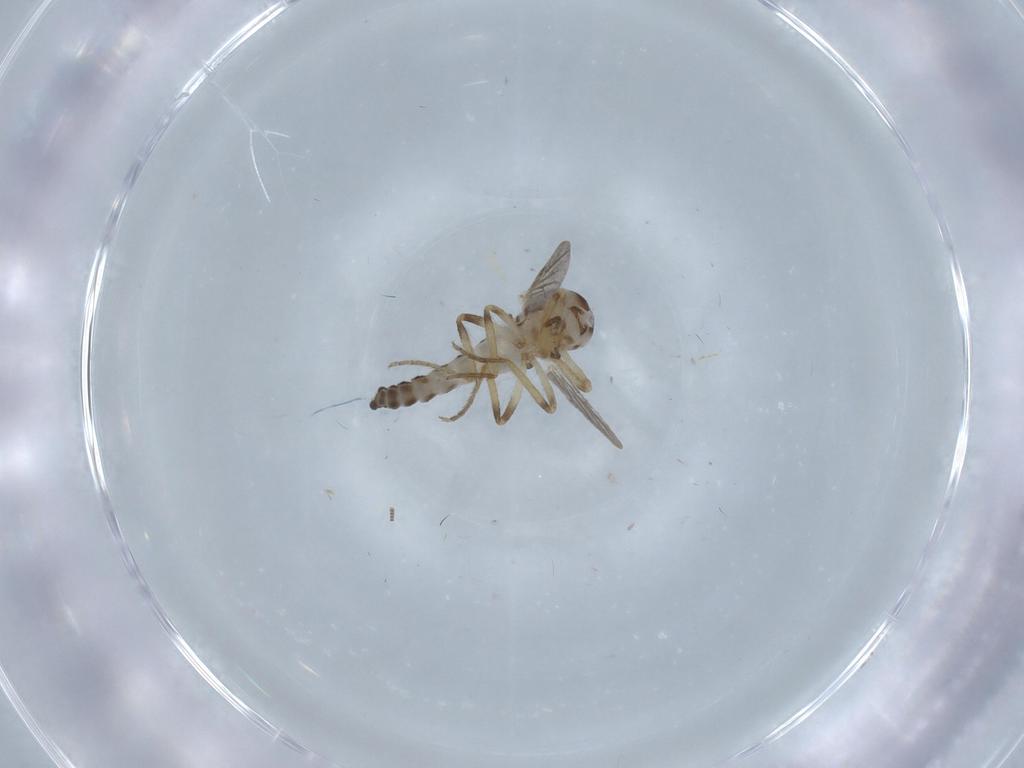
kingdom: Animalia
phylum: Arthropoda
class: Insecta
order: Diptera
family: Ceratopogonidae
